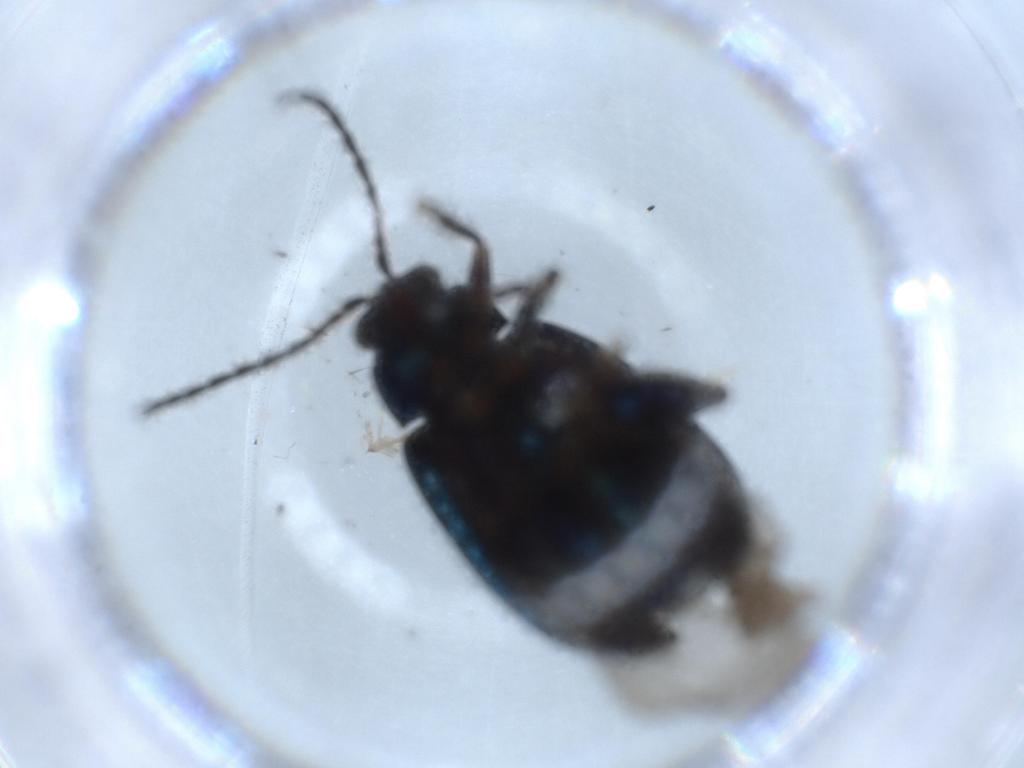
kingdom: Animalia
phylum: Arthropoda
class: Insecta
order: Coleoptera
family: Chrysomelidae
